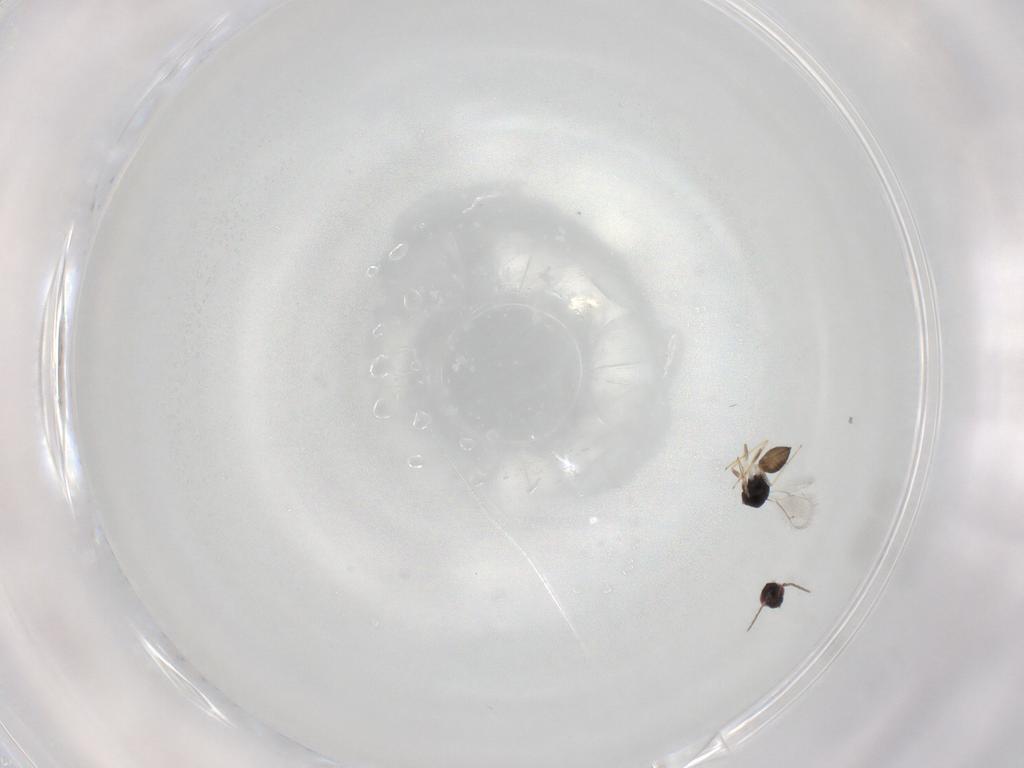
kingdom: Animalia
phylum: Arthropoda
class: Insecta
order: Hymenoptera
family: Eulophidae
